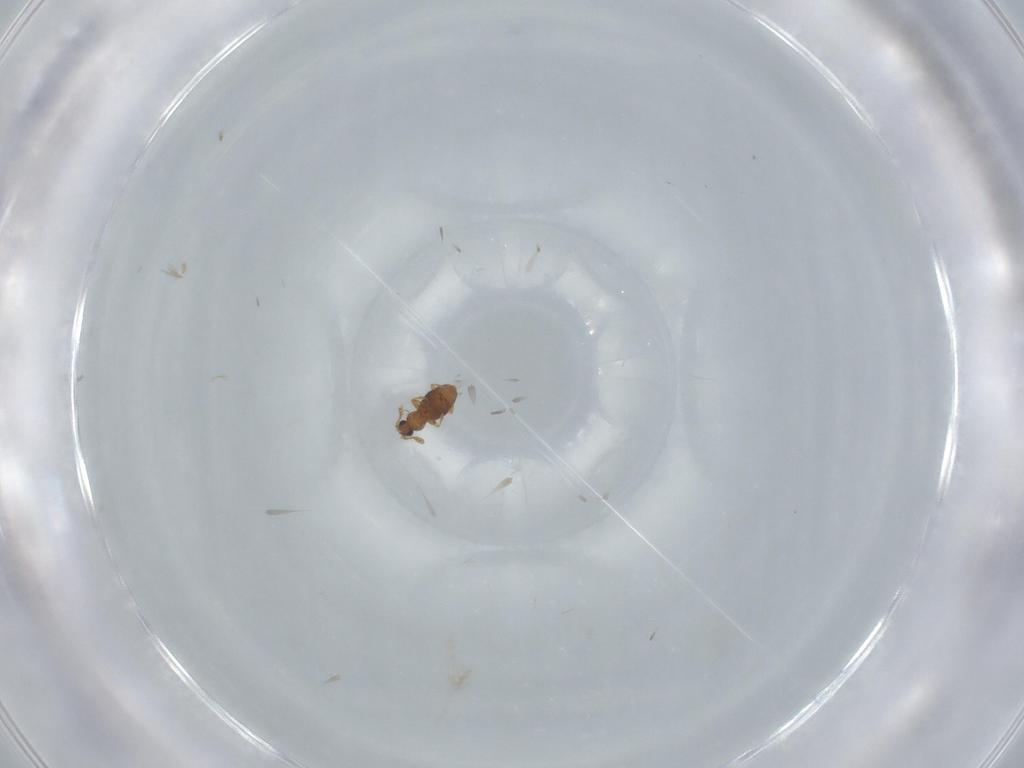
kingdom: Animalia
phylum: Arthropoda
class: Insecta
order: Coleoptera
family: Staphylinidae
